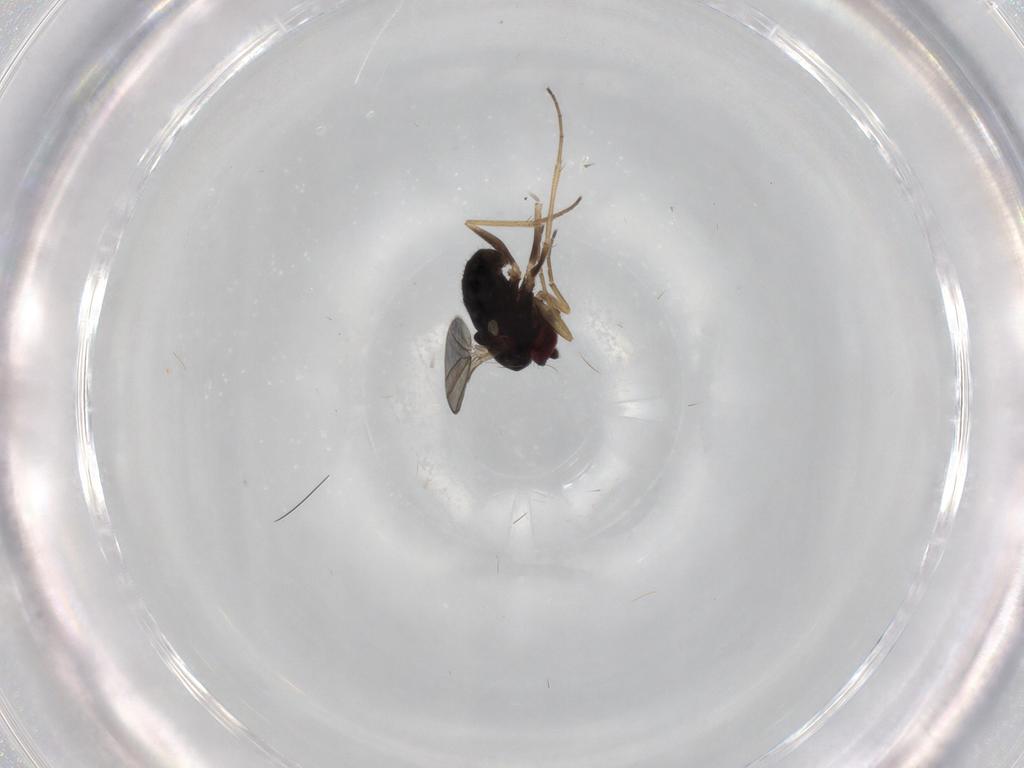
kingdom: Animalia
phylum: Arthropoda
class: Insecta
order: Diptera
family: Dolichopodidae
